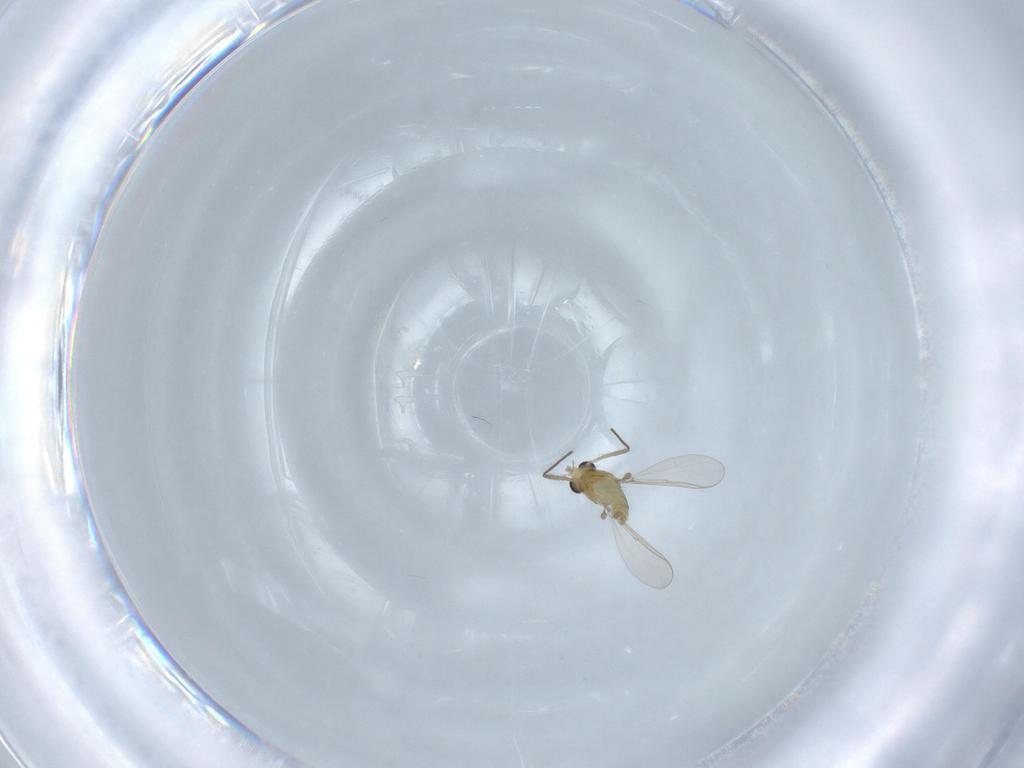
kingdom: Animalia
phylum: Arthropoda
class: Insecta
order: Diptera
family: Chironomidae
